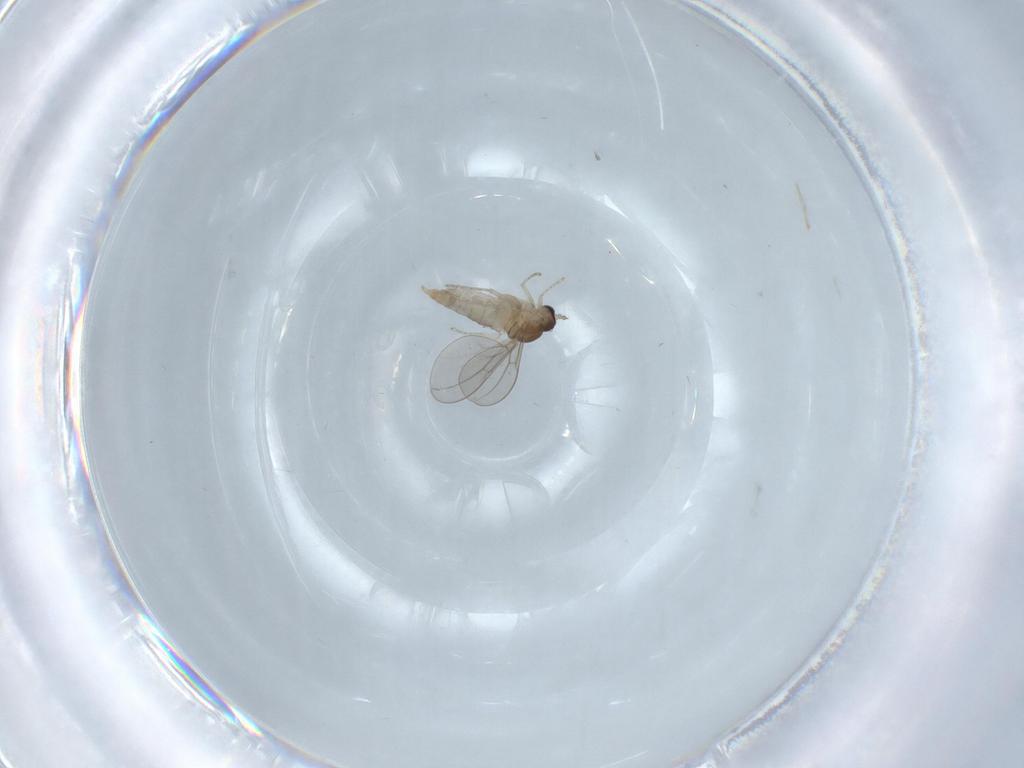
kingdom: Animalia
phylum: Arthropoda
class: Insecta
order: Diptera
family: Cecidomyiidae
